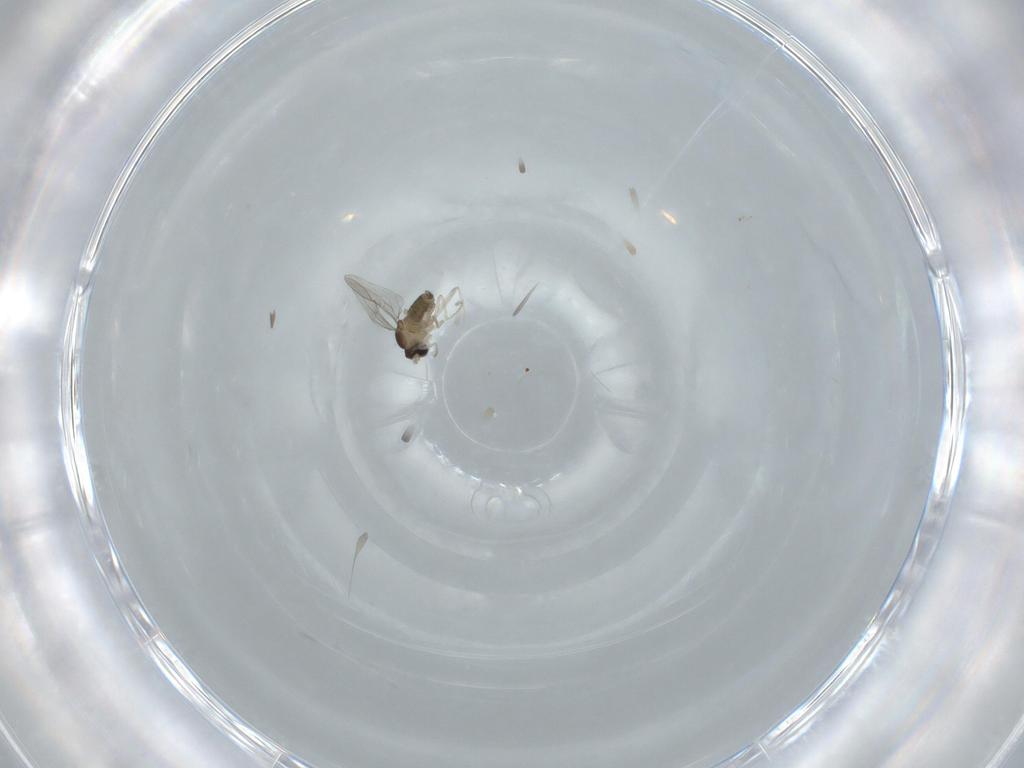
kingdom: Animalia
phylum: Arthropoda
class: Insecta
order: Diptera
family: Cecidomyiidae
